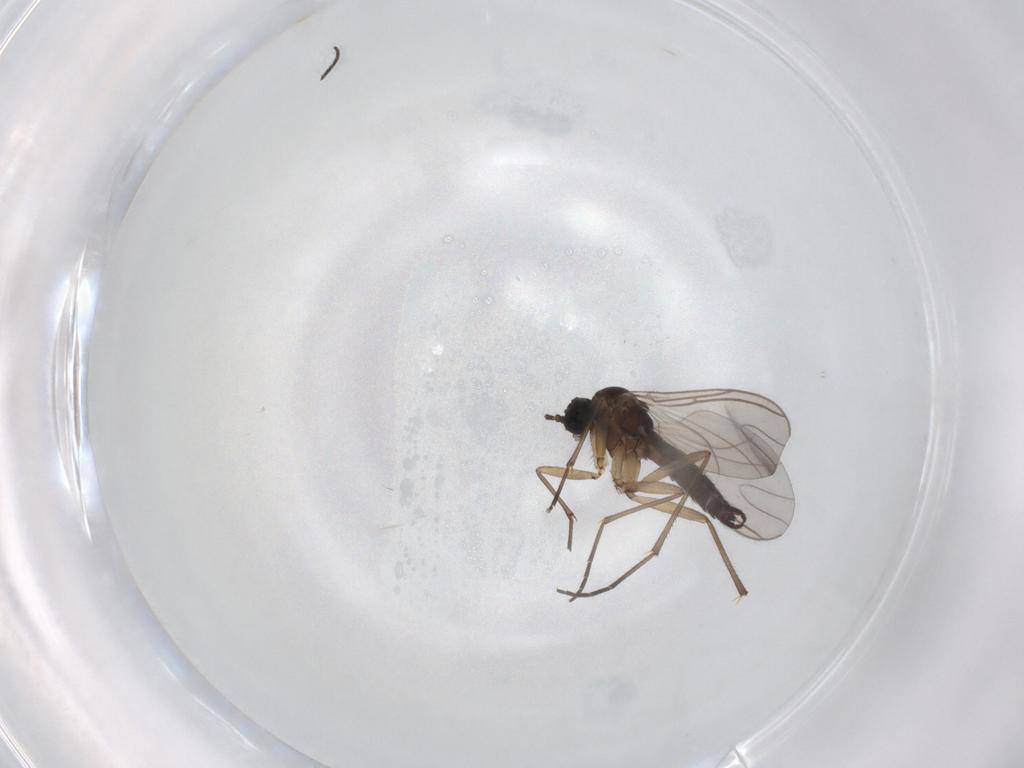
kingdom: Animalia
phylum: Arthropoda
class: Insecta
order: Diptera
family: Sciaridae
